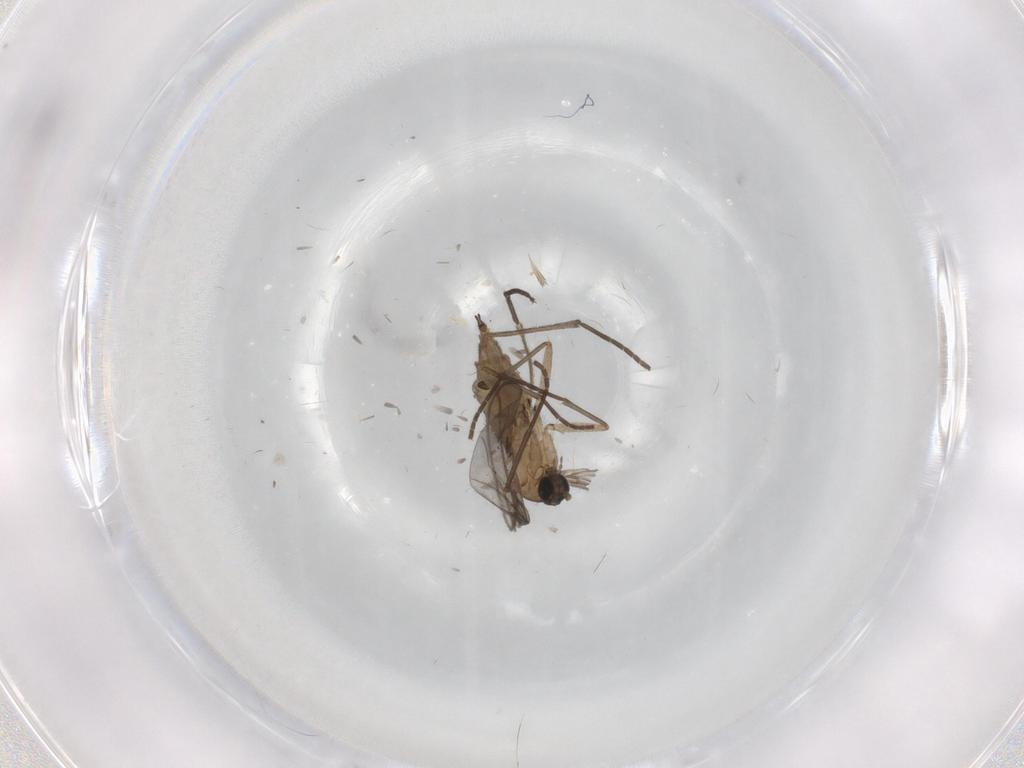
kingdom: Animalia
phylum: Arthropoda
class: Insecta
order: Diptera
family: Sciaridae
